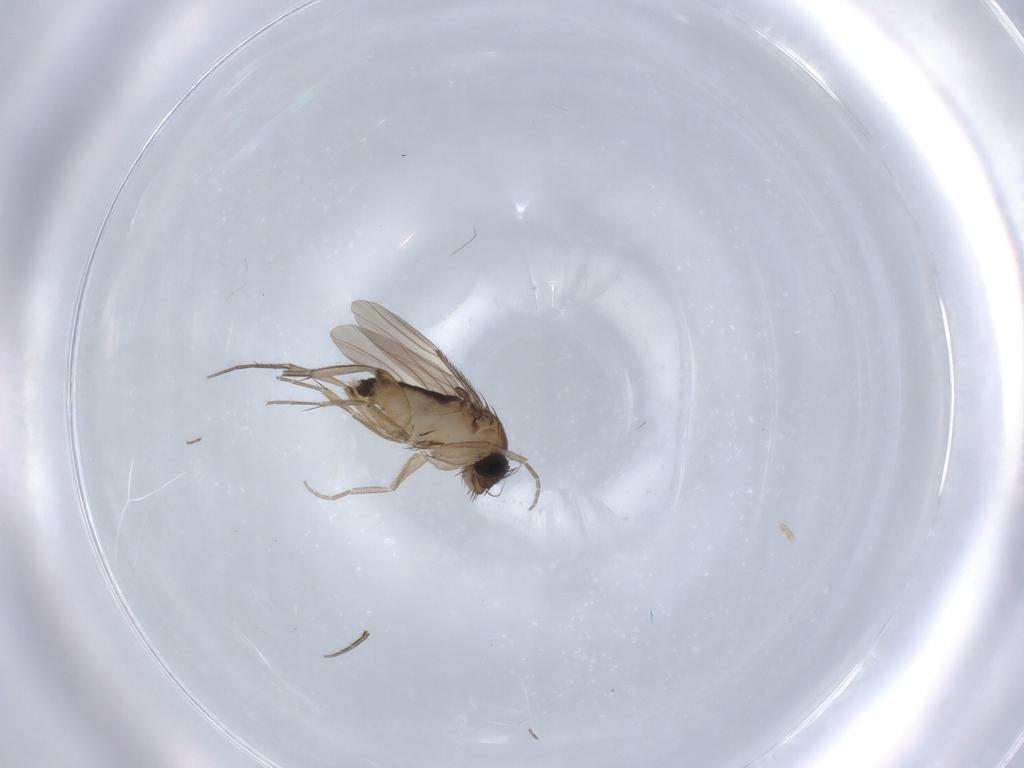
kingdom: Animalia
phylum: Arthropoda
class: Insecta
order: Diptera
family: Phoridae
